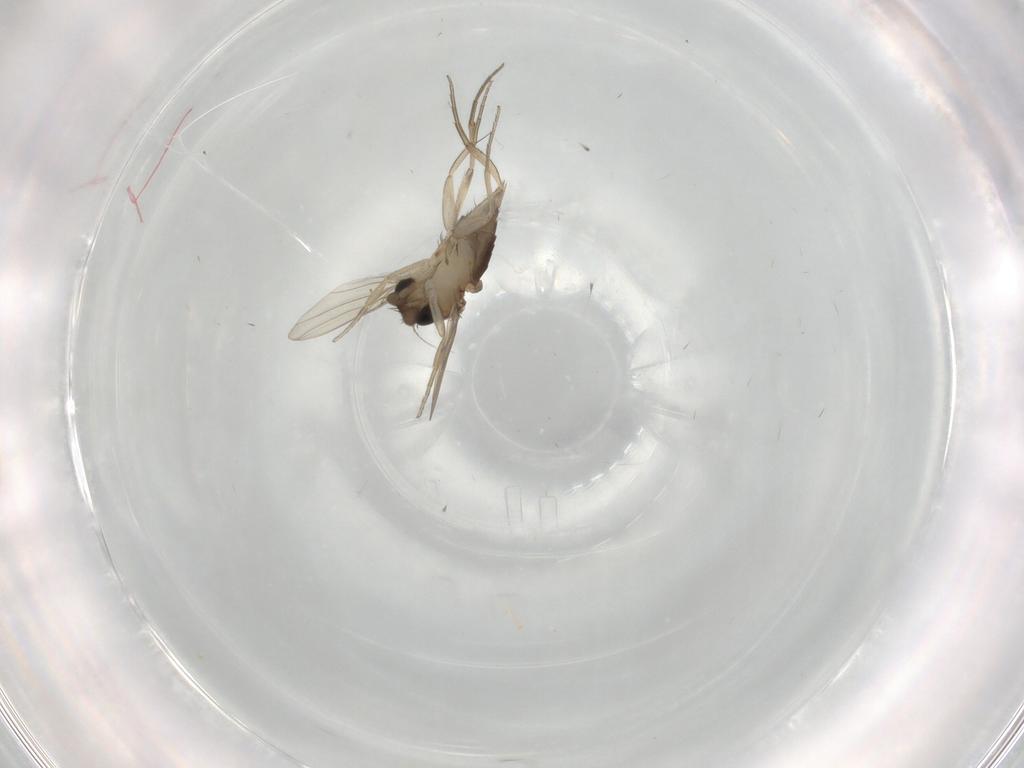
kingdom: Animalia
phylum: Arthropoda
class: Insecta
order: Diptera
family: Phoridae
